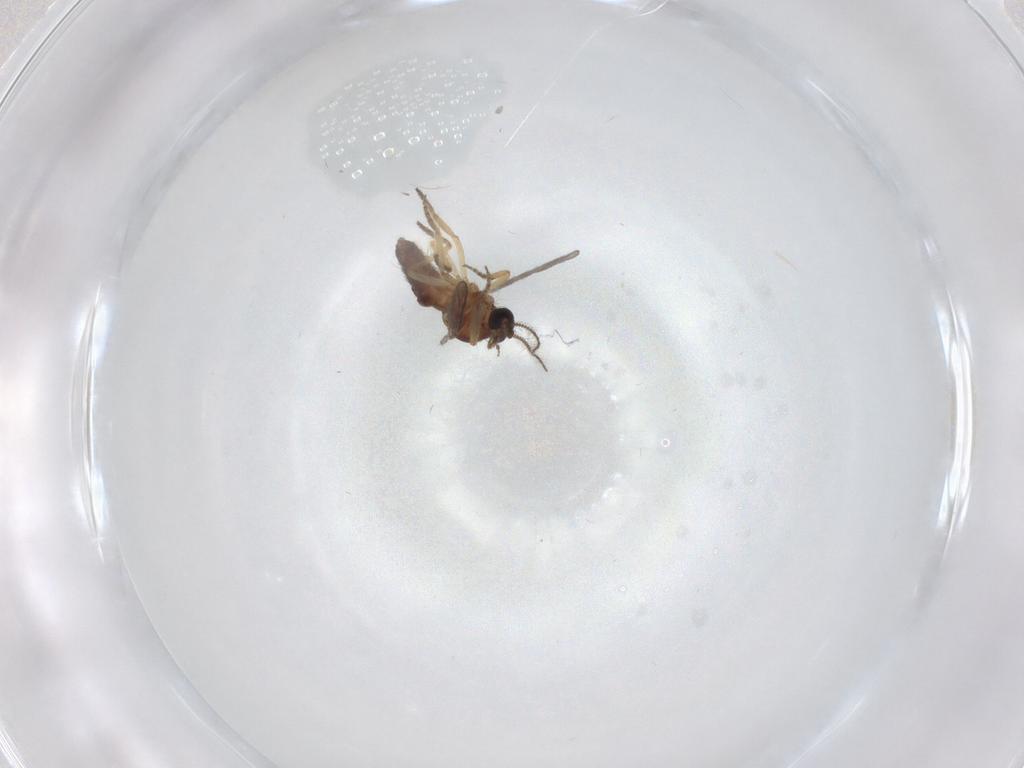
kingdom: Animalia
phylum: Arthropoda
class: Insecta
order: Diptera
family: Ceratopogonidae
